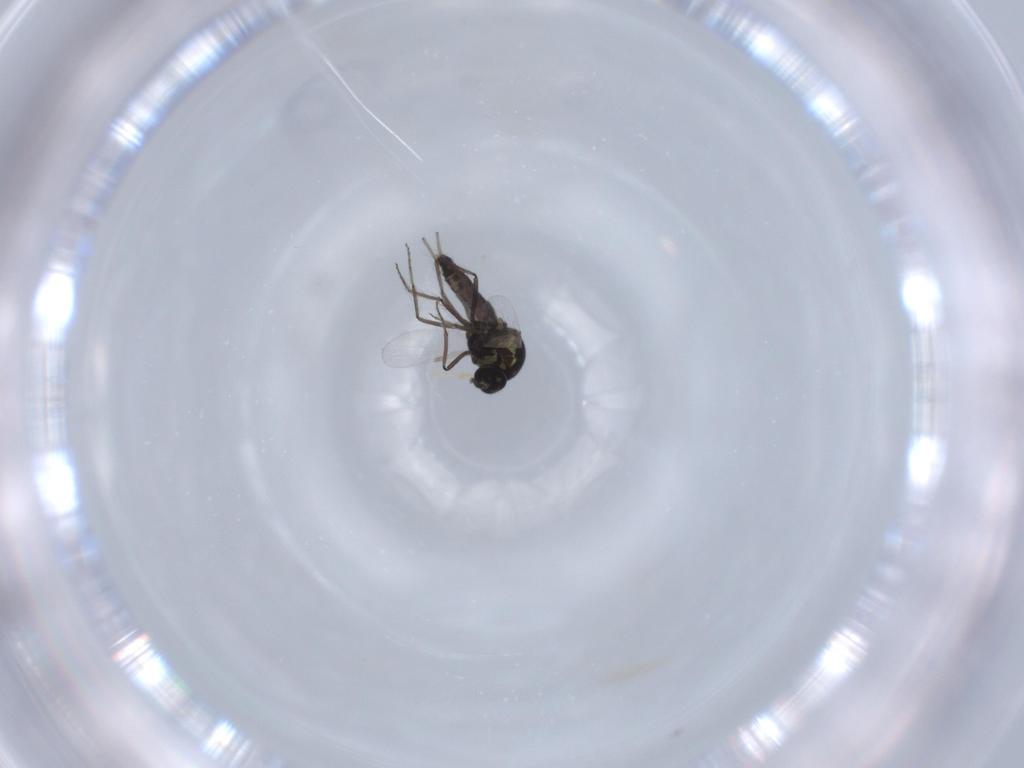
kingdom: Animalia
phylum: Arthropoda
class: Insecta
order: Diptera
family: Ceratopogonidae
